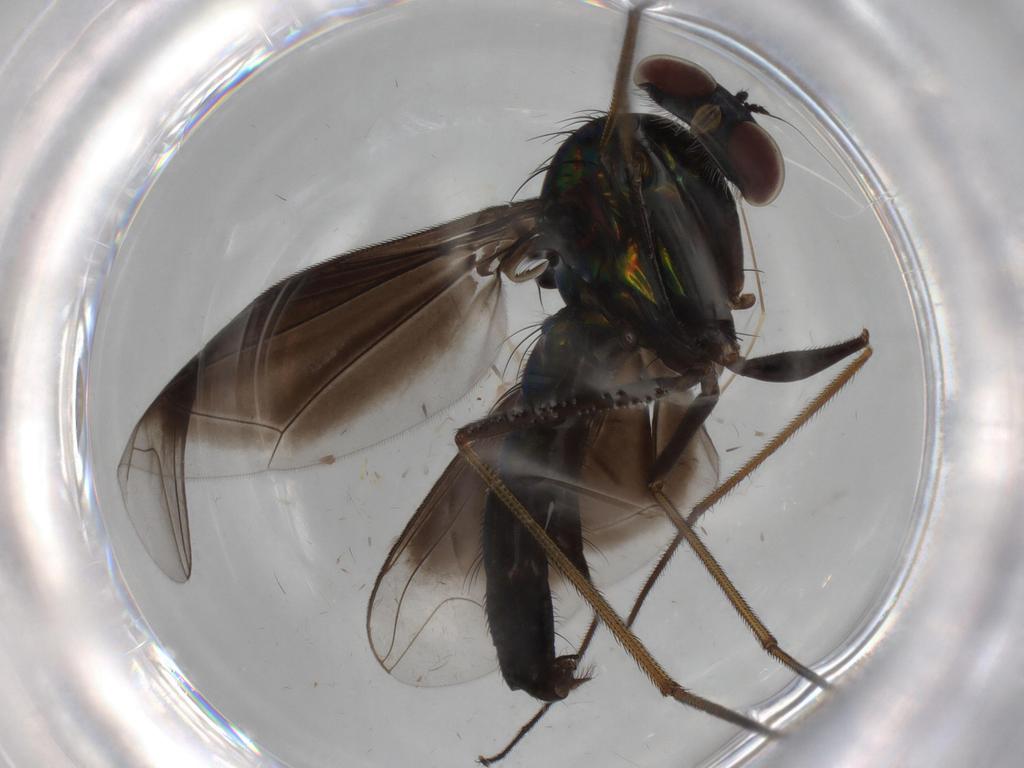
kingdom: Animalia
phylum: Arthropoda
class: Insecta
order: Diptera
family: Dolichopodidae
